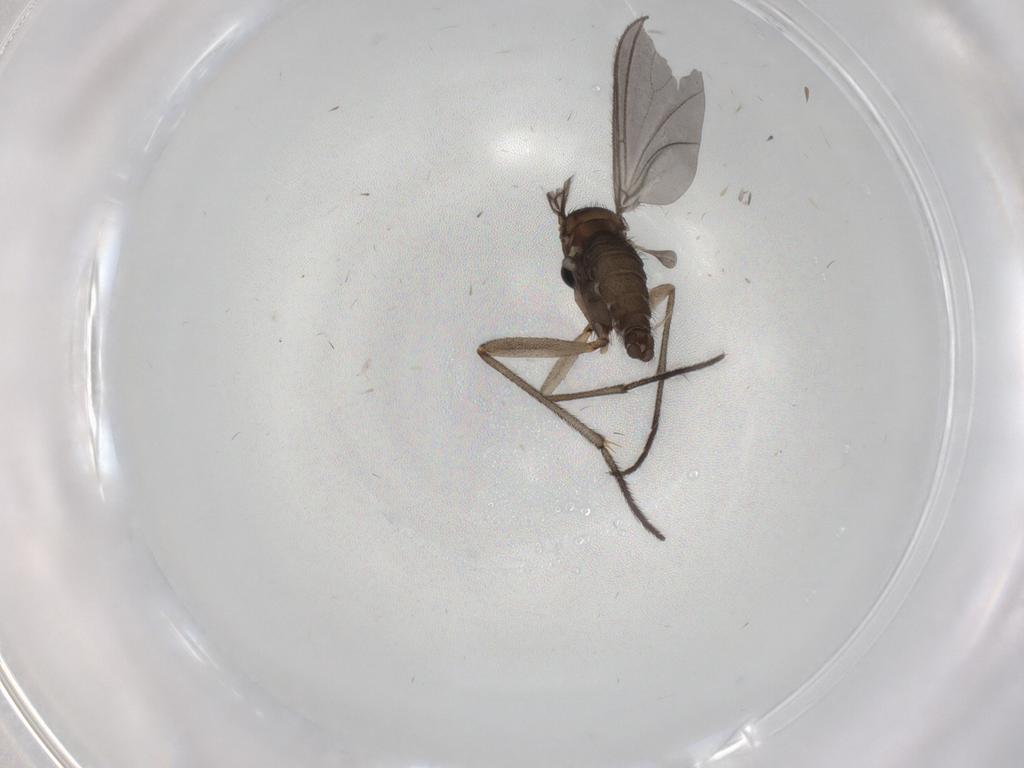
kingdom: Animalia
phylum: Arthropoda
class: Insecta
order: Diptera
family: Sciaridae
